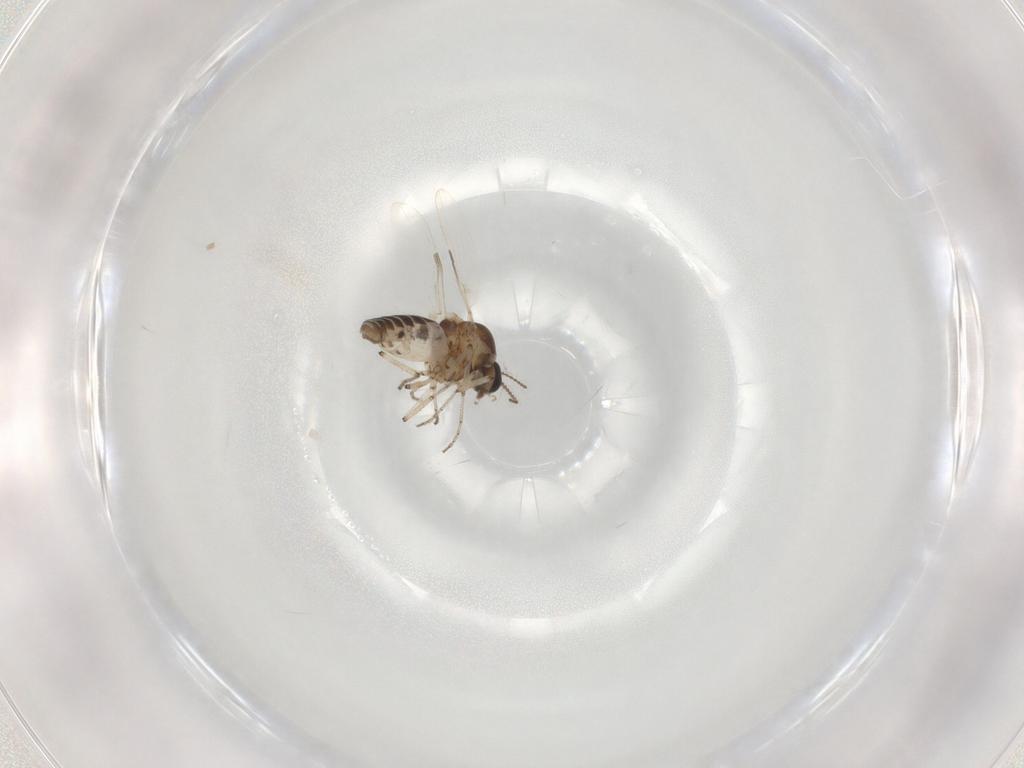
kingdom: Animalia
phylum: Arthropoda
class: Insecta
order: Diptera
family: Ceratopogonidae
